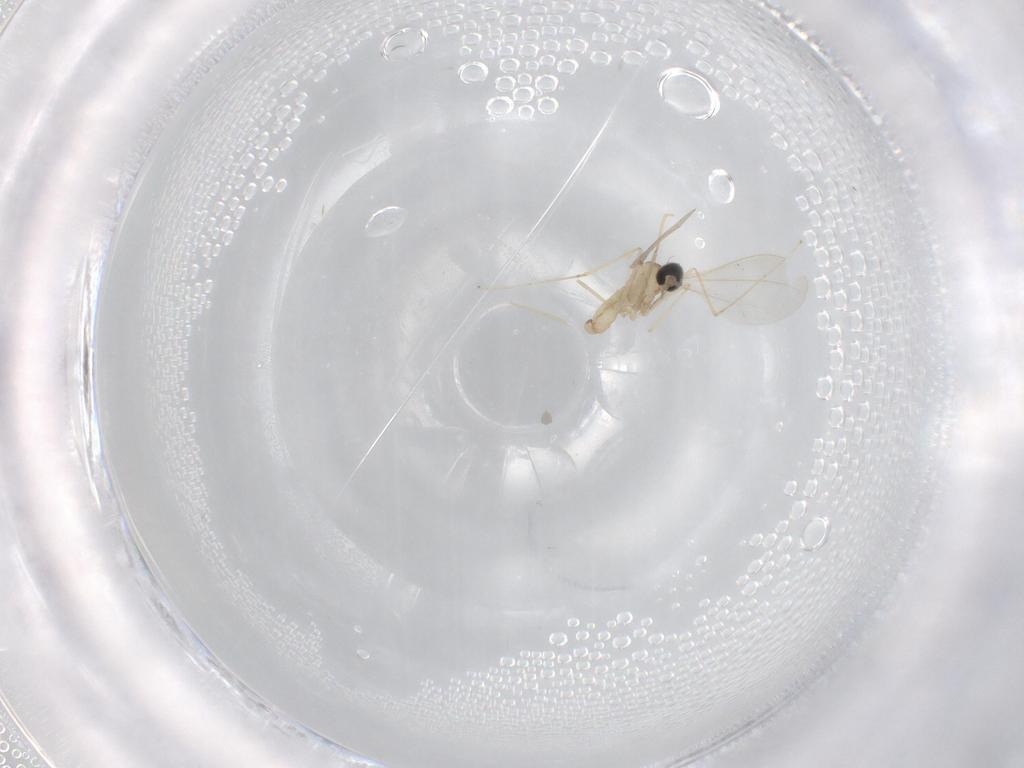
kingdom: Animalia
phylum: Arthropoda
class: Insecta
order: Diptera
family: Cecidomyiidae
